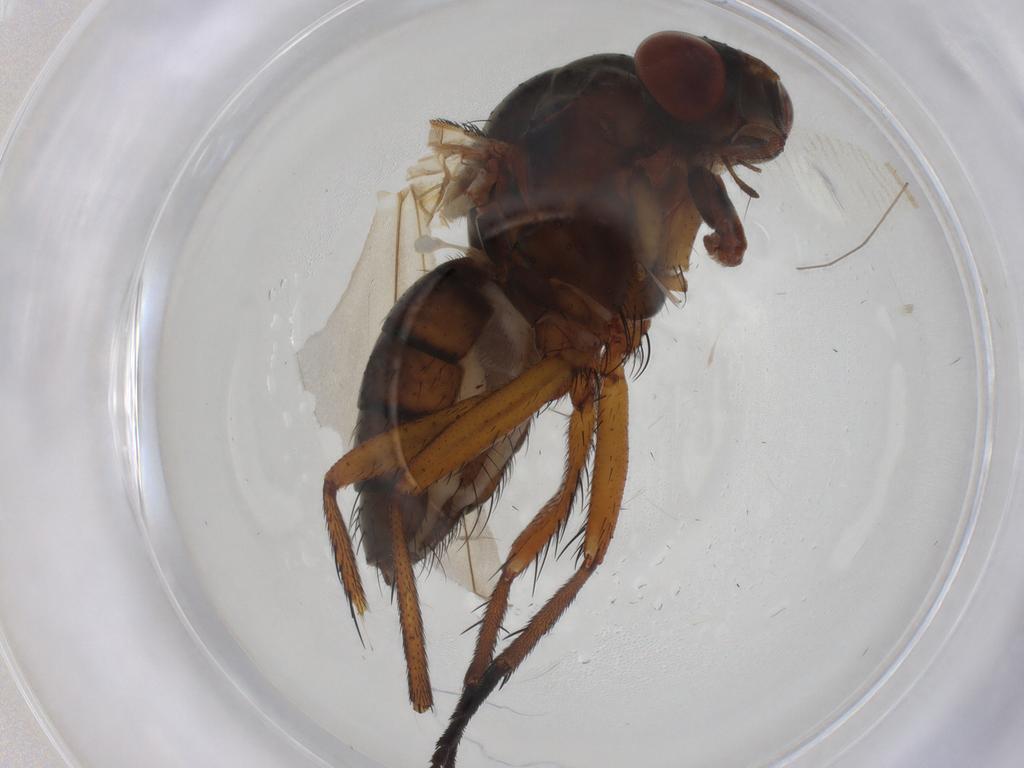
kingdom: Animalia
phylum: Arthropoda
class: Insecta
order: Diptera
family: Anthomyiidae
